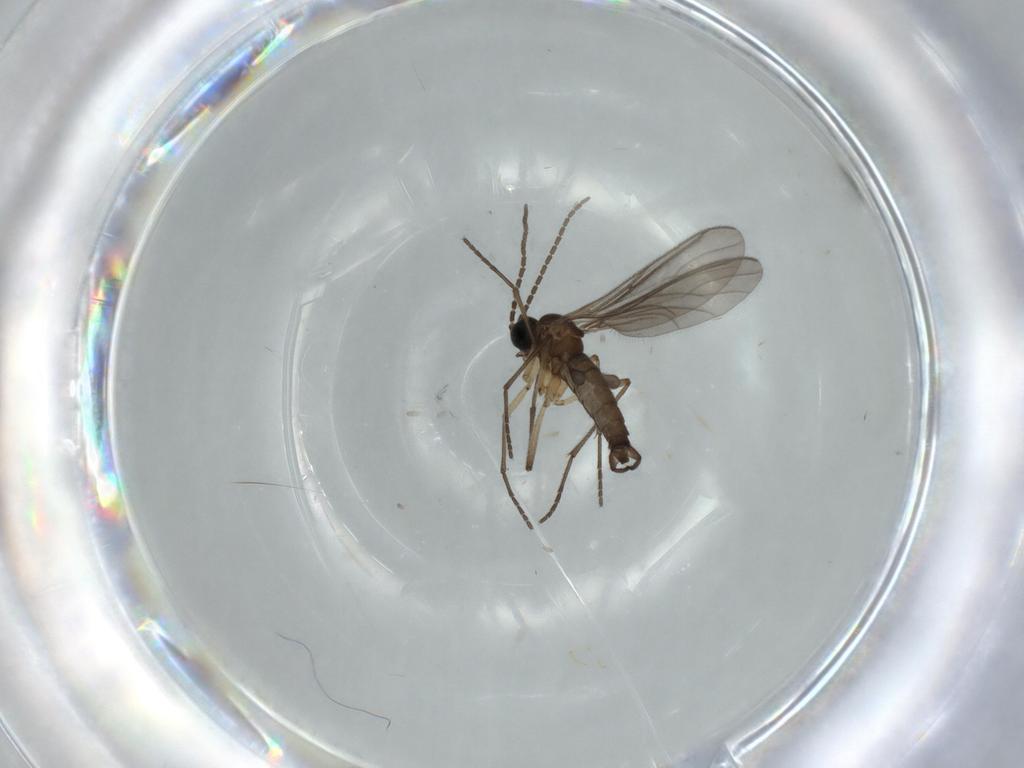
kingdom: Animalia
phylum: Arthropoda
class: Insecta
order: Diptera
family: Sciaridae
